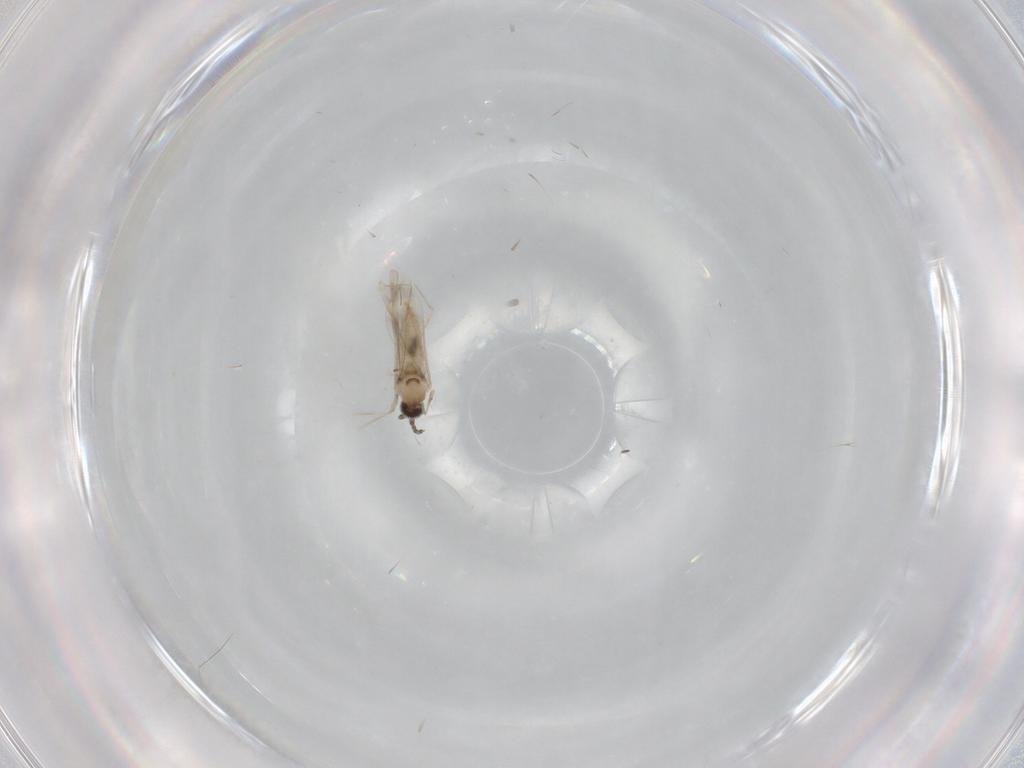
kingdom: Animalia
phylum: Arthropoda
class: Insecta
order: Diptera
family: Cecidomyiidae
